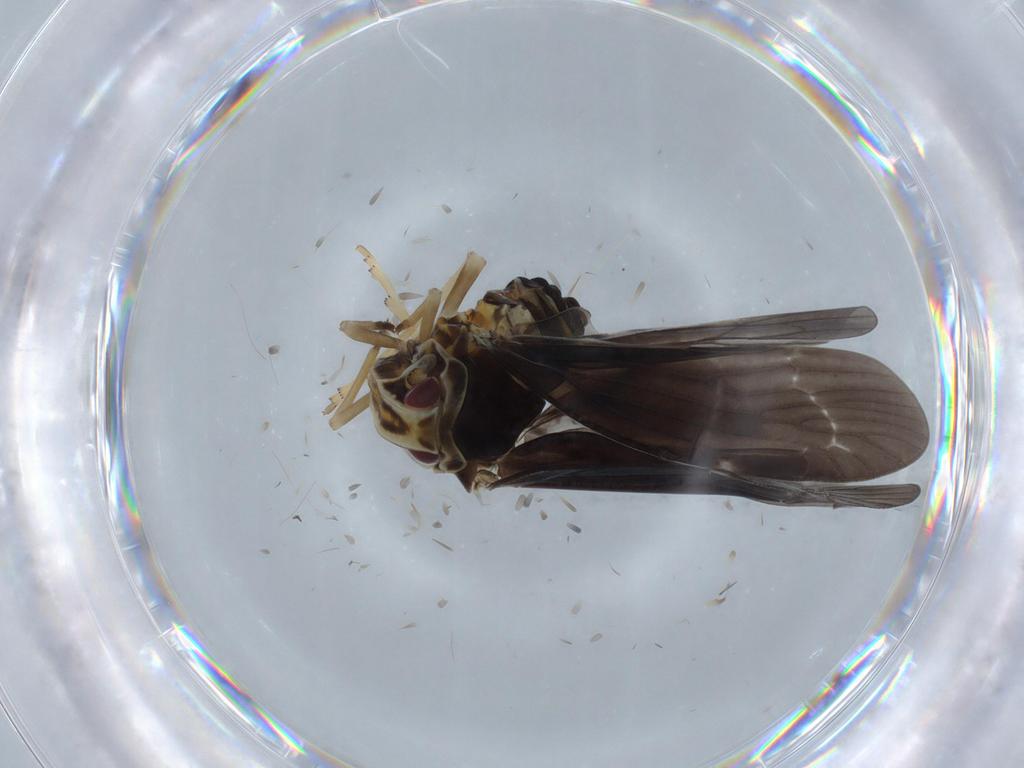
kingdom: Animalia
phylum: Arthropoda
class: Insecta
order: Hemiptera
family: Derbidae
